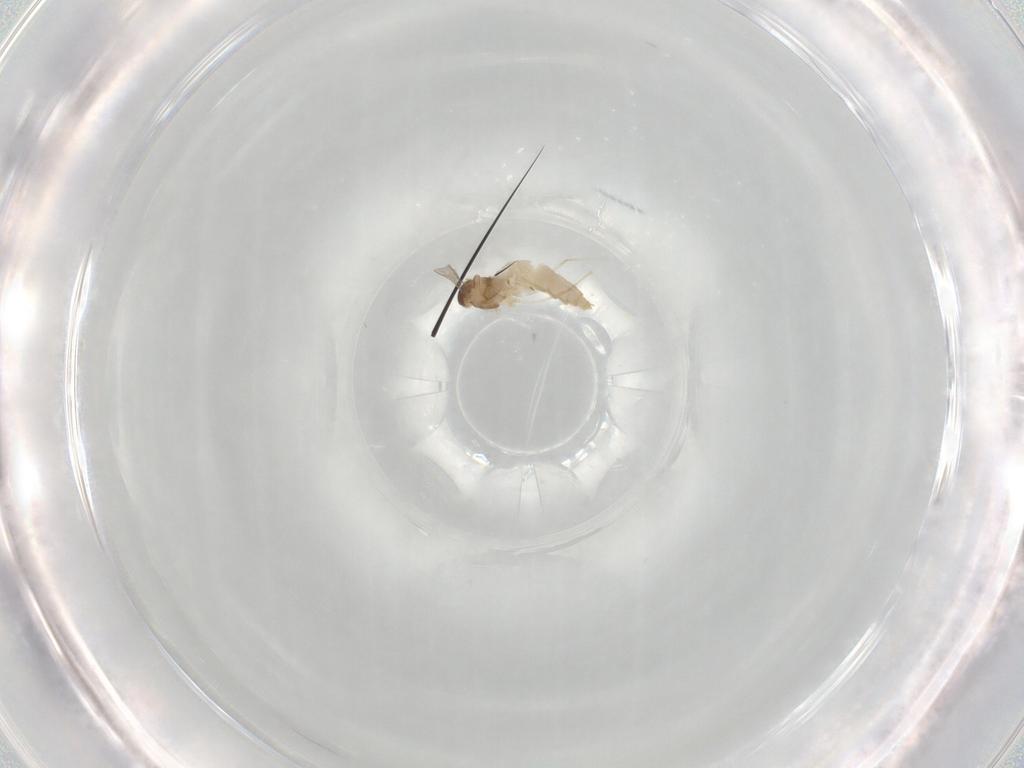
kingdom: Animalia
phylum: Arthropoda
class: Insecta
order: Diptera
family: Cecidomyiidae
